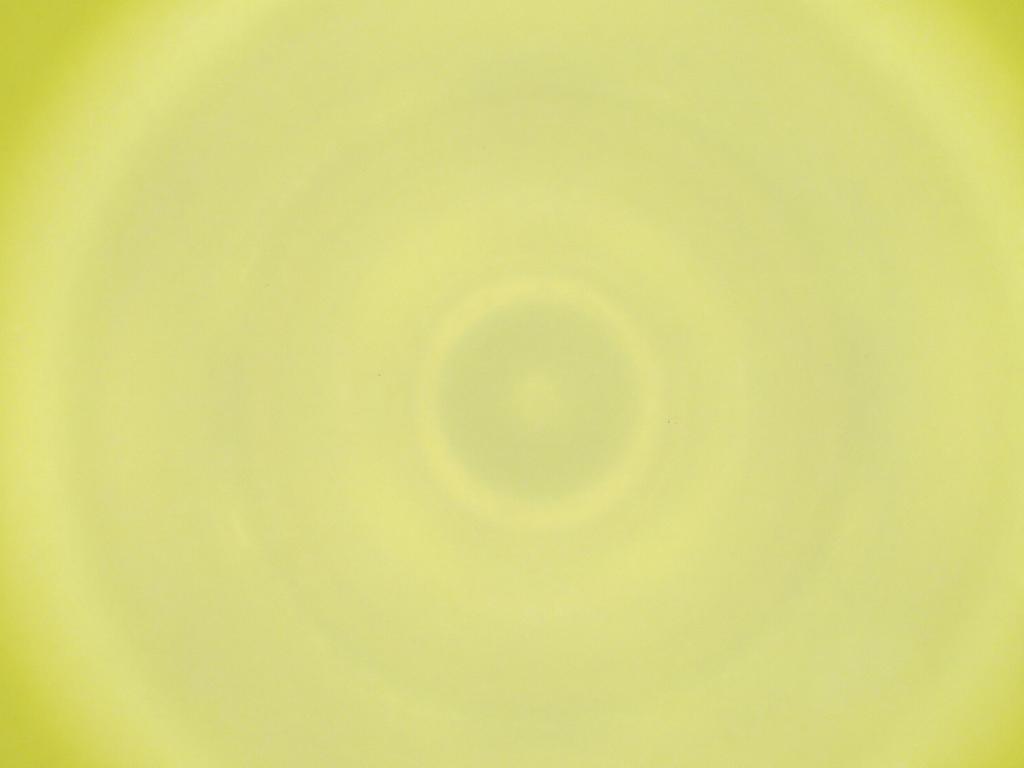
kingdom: Animalia
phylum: Arthropoda
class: Insecta
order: Diptera
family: Cecidomyiidae
